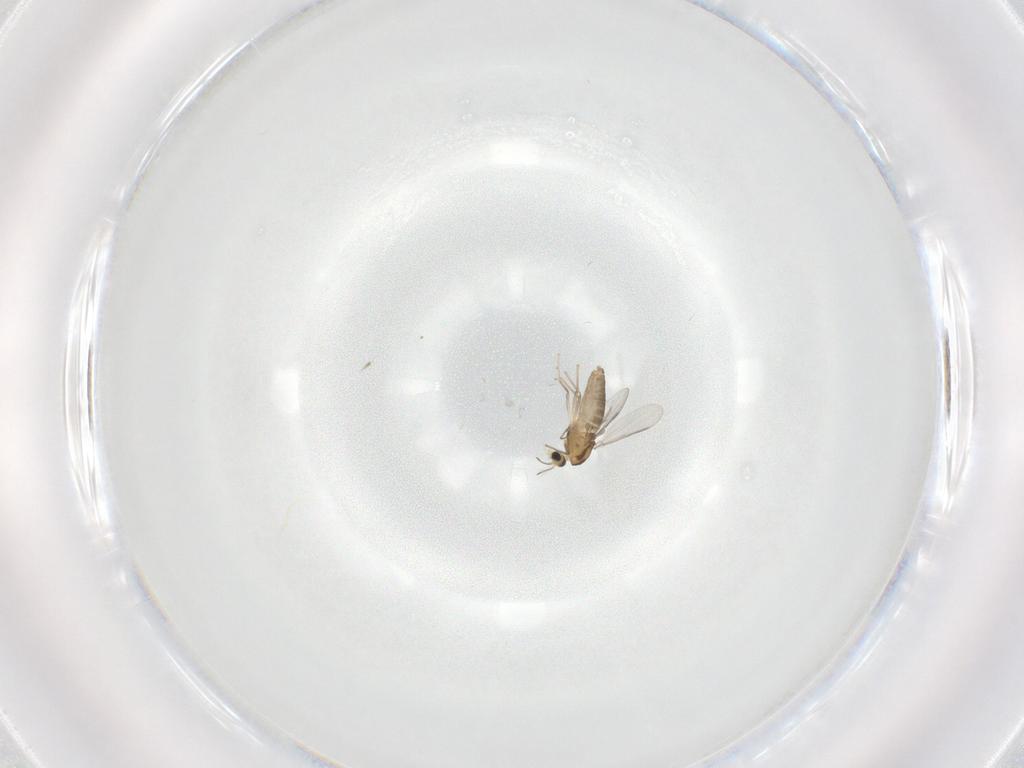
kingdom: Animalia
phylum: Arthropoda
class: Insecta
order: Diptera
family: Chironomidae
